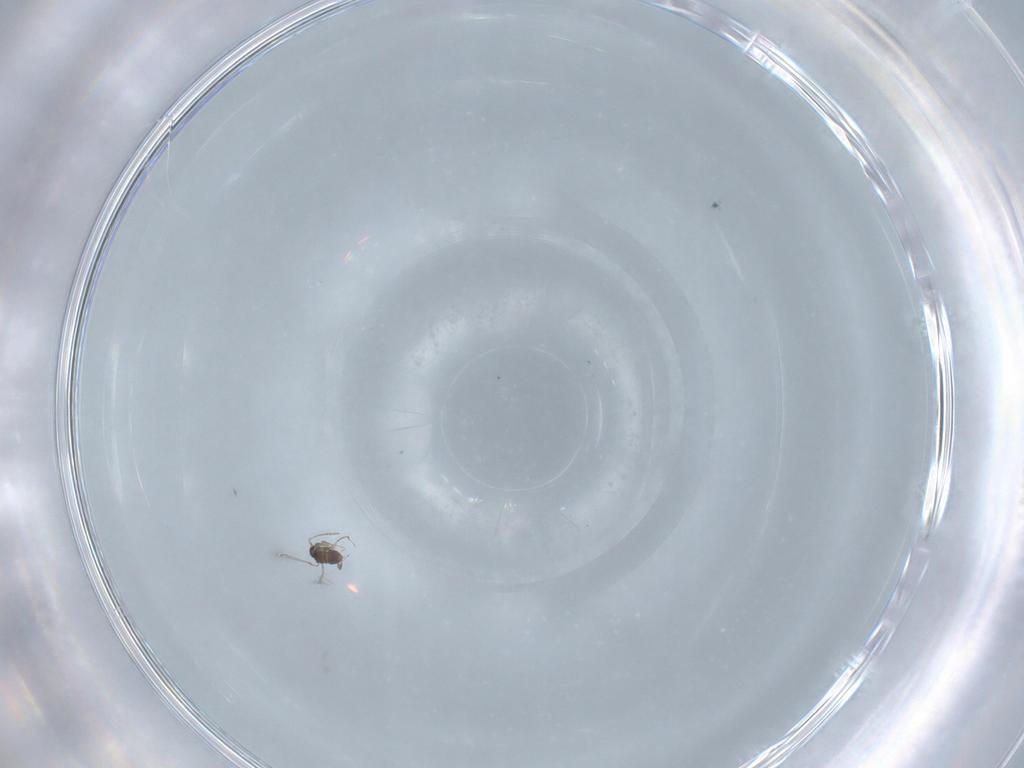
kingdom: Animalia
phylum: Arthropoda
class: Insecta
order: Hymenoptera
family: Mymaridae
